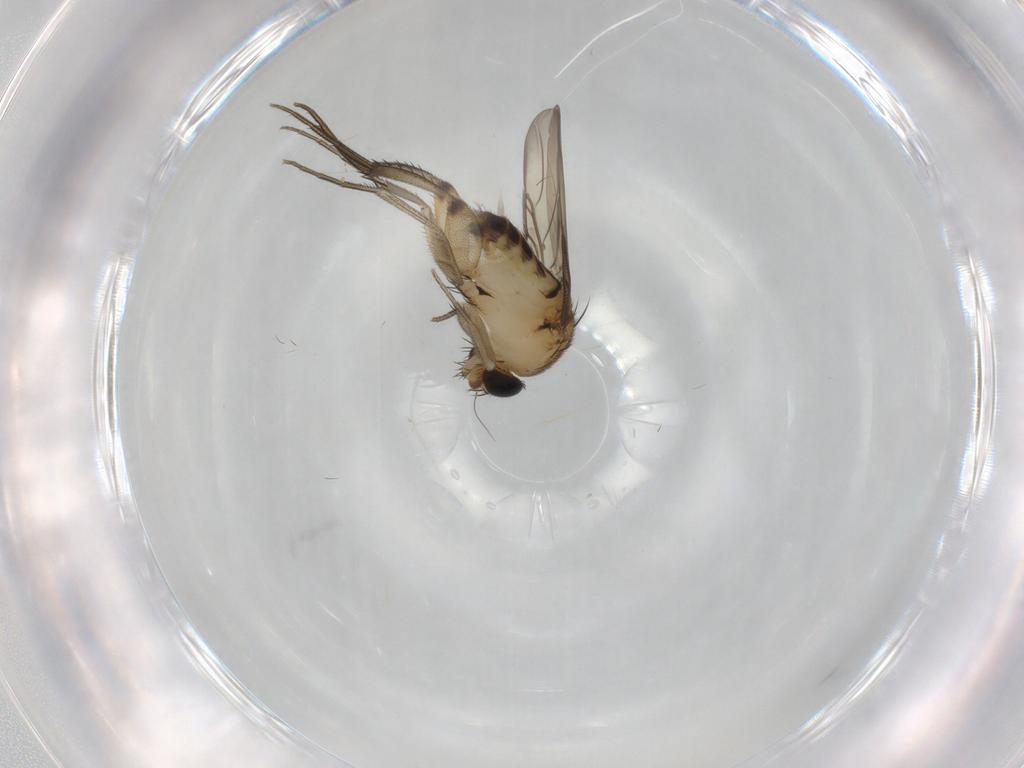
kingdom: Animalia
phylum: Arthropoda
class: Insecta
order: Diptera
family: Phoridae
